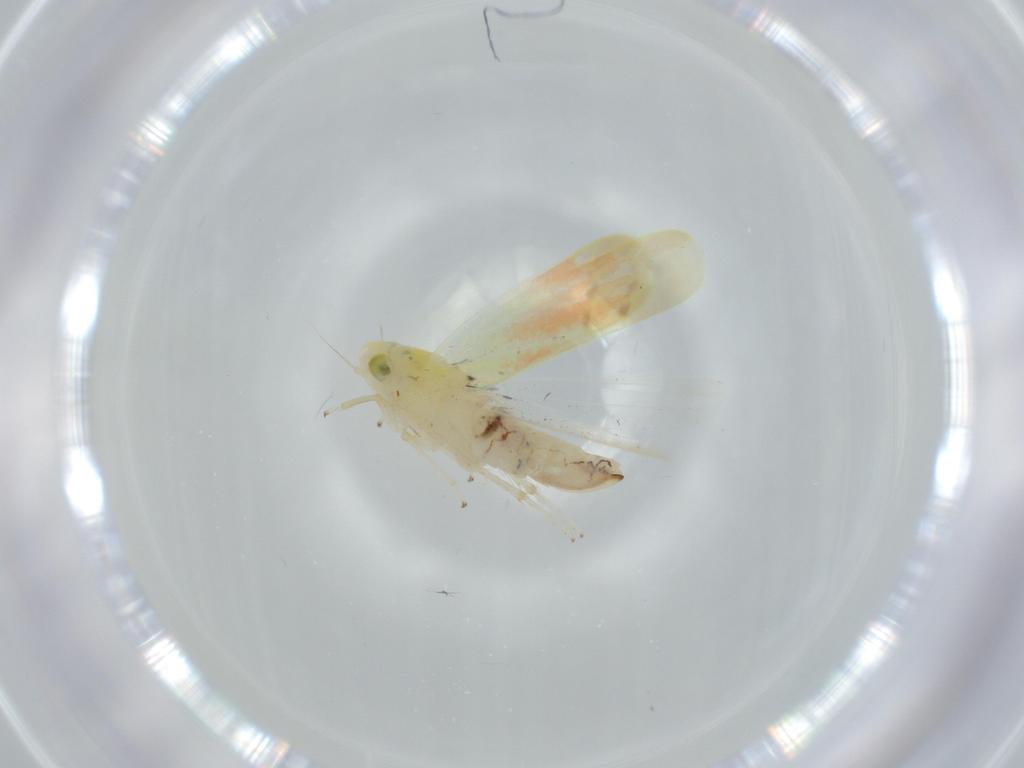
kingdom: Animalia
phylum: Arthropoda
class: Insecta
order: Hemiptera
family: Cicadellidae
